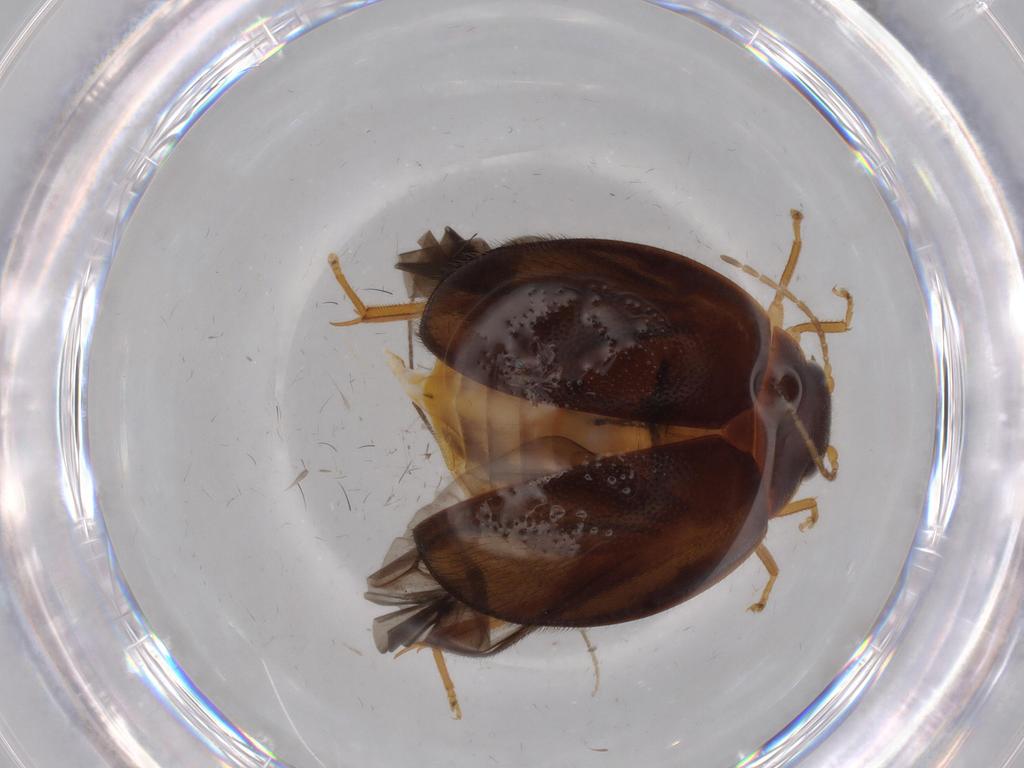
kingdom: Animalia
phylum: Arthropoda
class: Insecta
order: Coleoptera
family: Scirtidae
